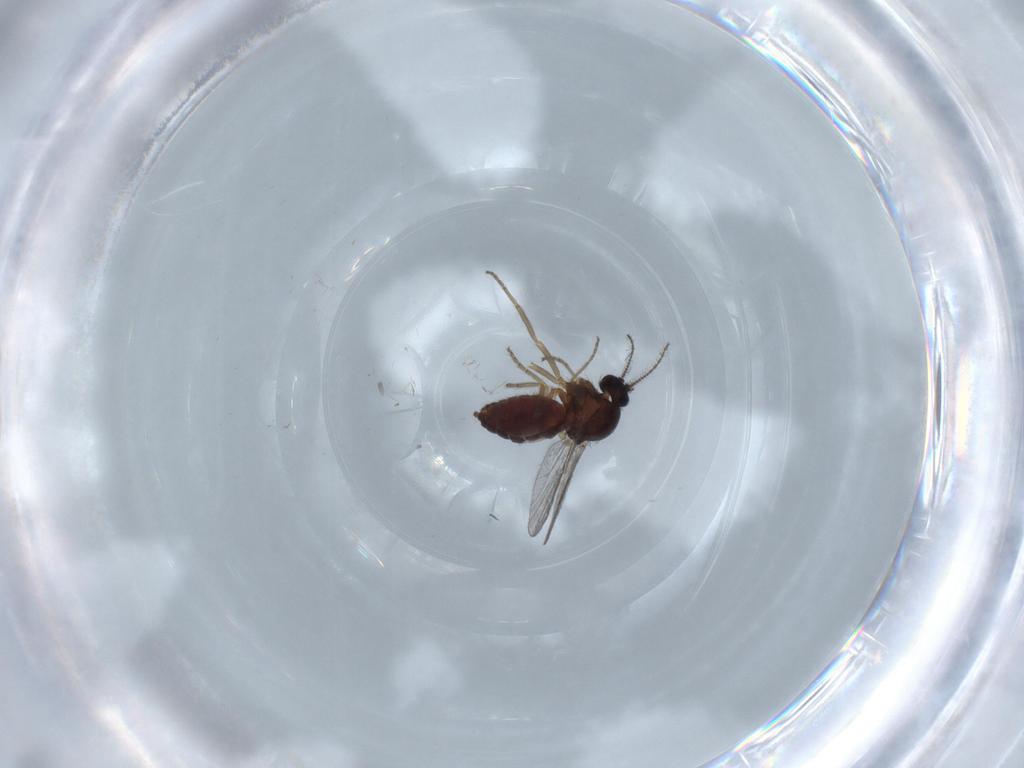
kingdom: Animalia
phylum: Arthropoda
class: Insecta
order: Diptera
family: Ceratopogonidae
